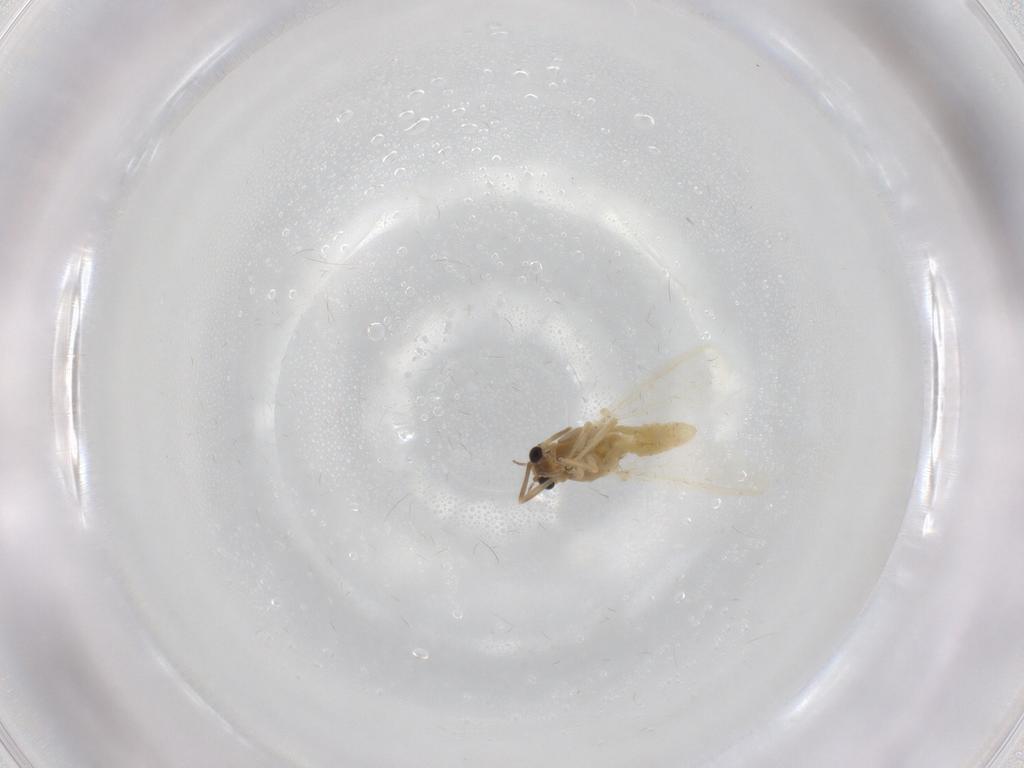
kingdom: Animalia
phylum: Arthropoda
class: Insecta
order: Diptera
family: Chironomidae
